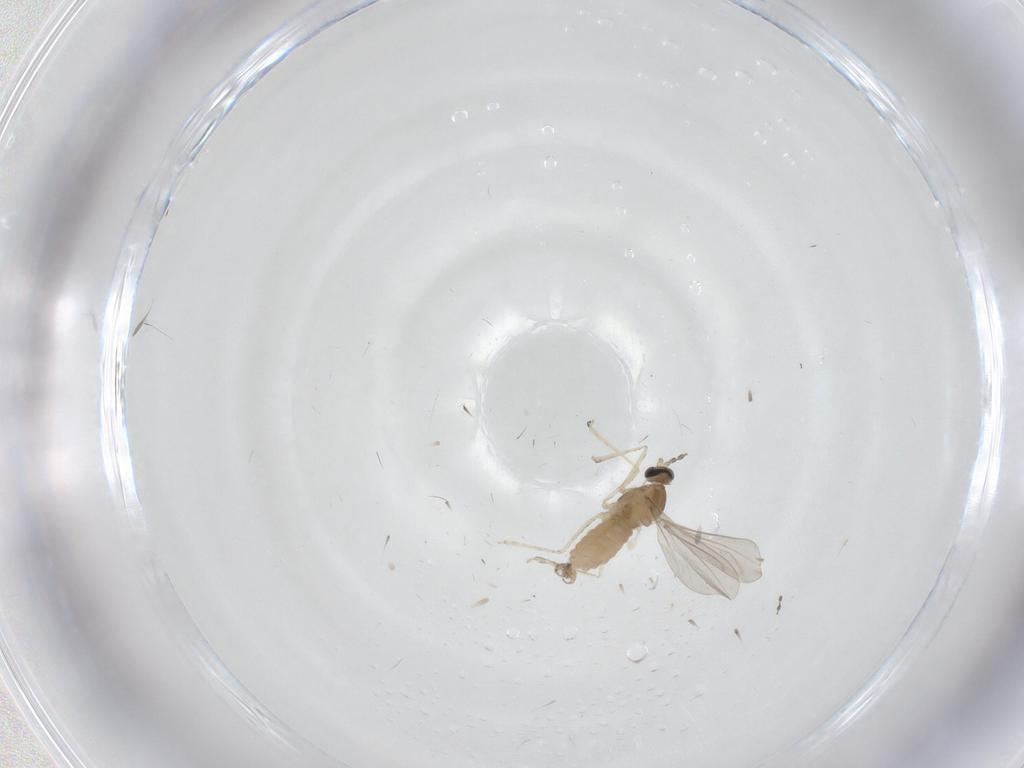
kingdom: Animalia
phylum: Arthropoda
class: Insecta
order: Diptera
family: Cecidomyiidae
